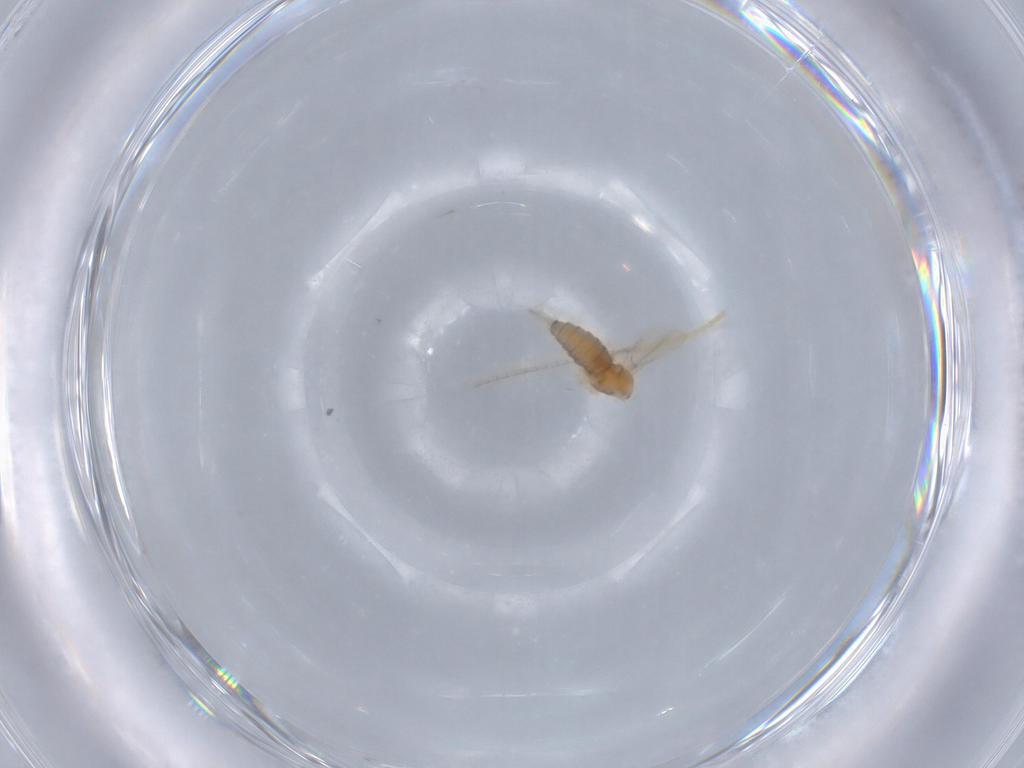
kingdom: Animalia
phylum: Arthropoda
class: Insecta
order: Diptera
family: Cecidomyiidae
